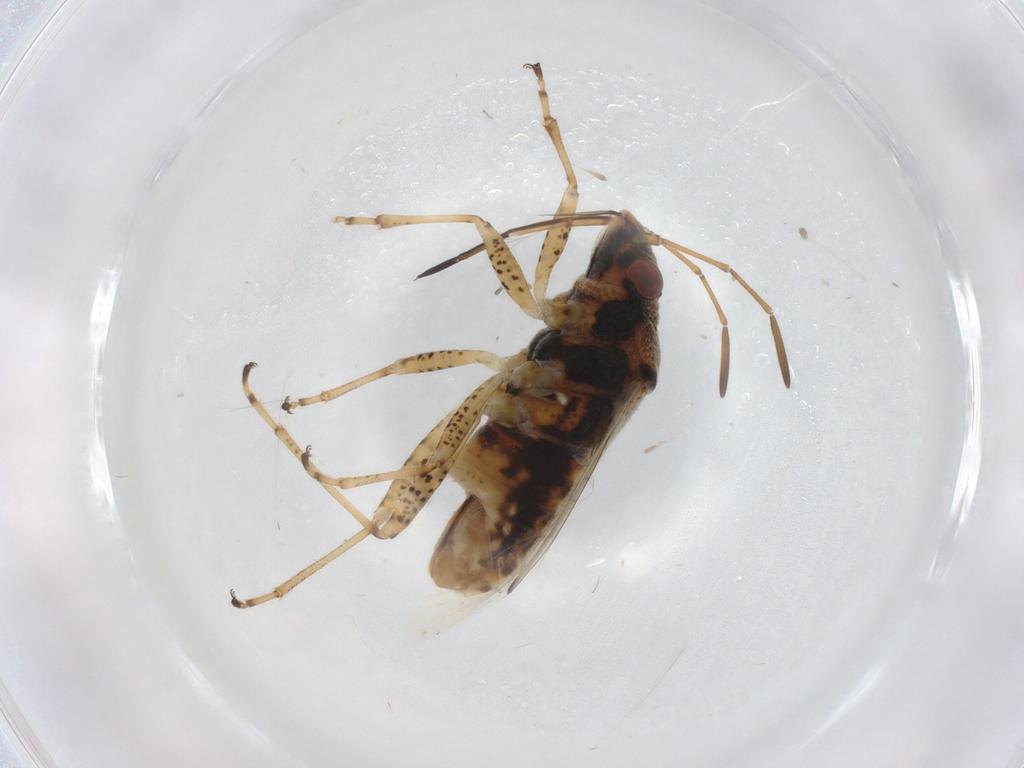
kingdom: Animalia
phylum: Arthropoda
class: Insecta
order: Hemiptera
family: Lygaeidae
